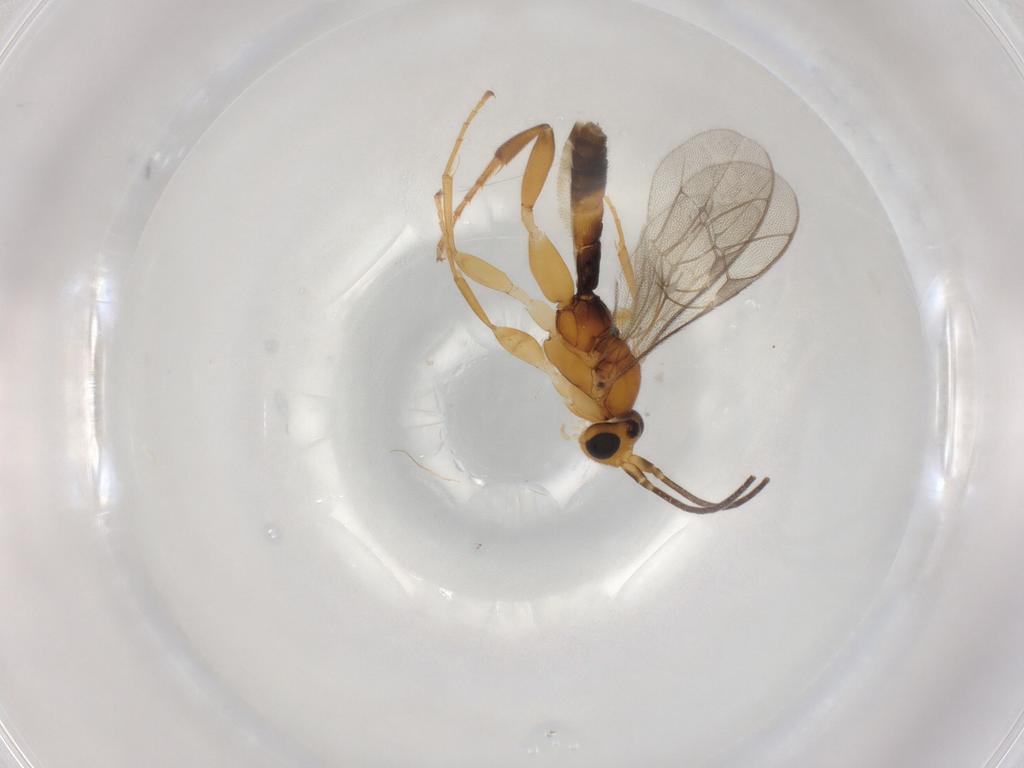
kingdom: Animalia
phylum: Arthropoda
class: Insecta
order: Hymenoptera
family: Ichneumonidae
